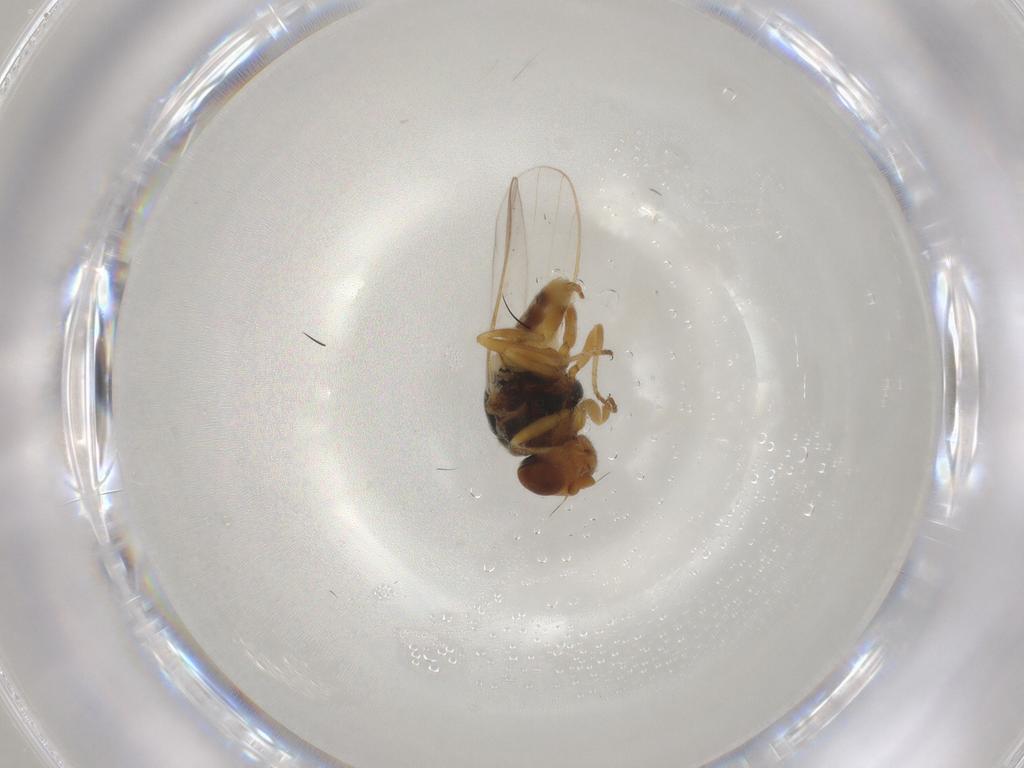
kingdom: Animalia
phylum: Arthropoda
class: Insecta
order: Diptera
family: Chironomidae
